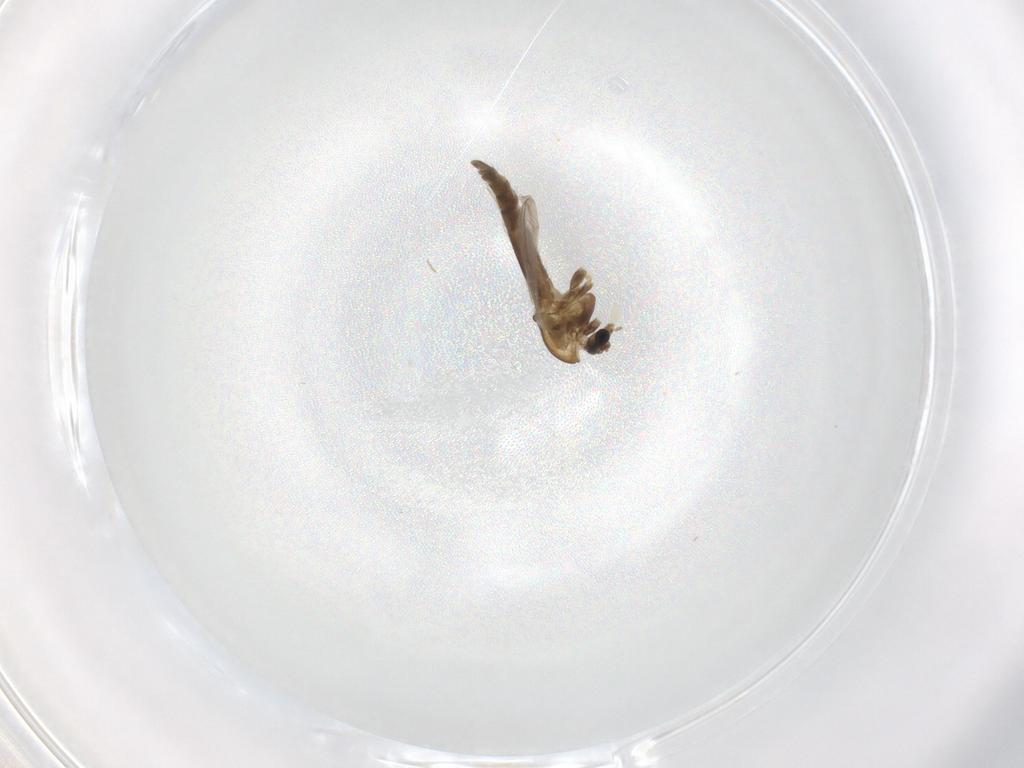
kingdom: Animalia
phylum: Arthropoda
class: Insecta
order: Diptera
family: Chironomidae
